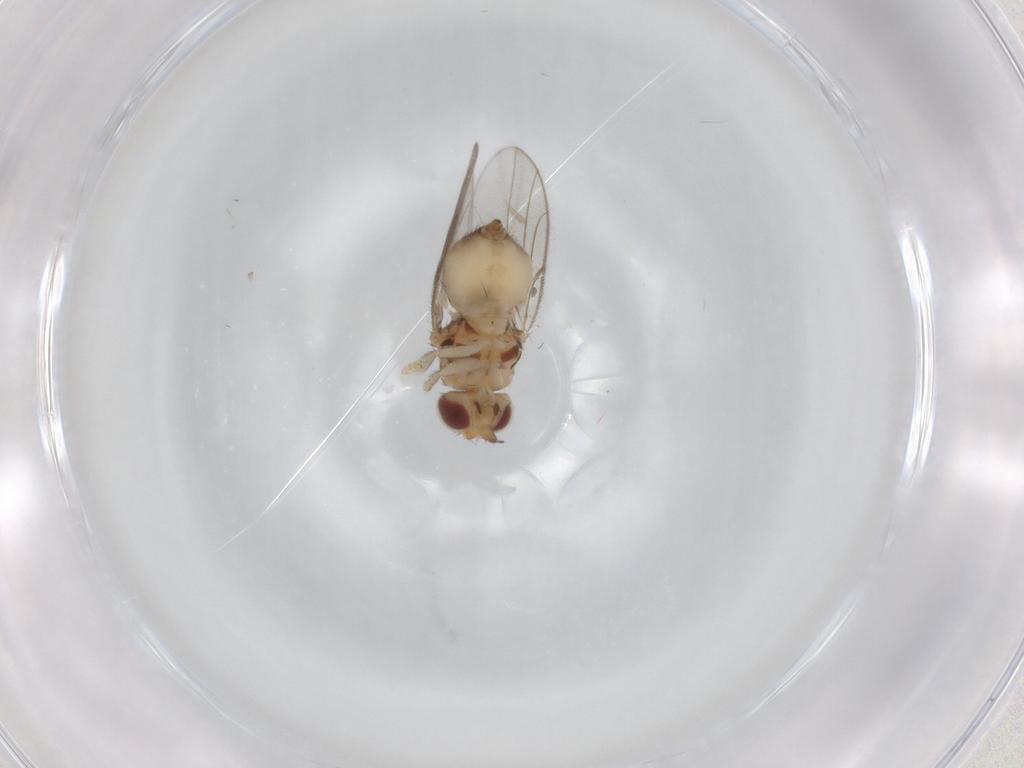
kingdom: Animalia
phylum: Arthropoda
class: Insecta
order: Diptera
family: Chloropidae
